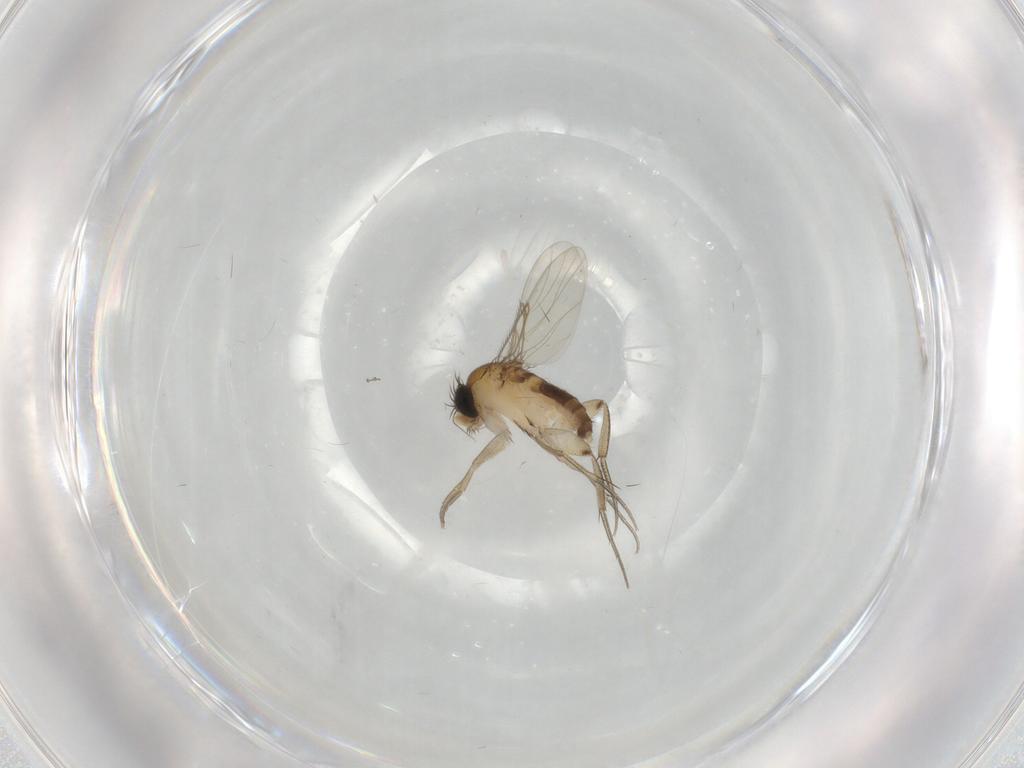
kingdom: Animalia
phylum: Arthropoda
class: Insecta
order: Diptera
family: Phoridae
